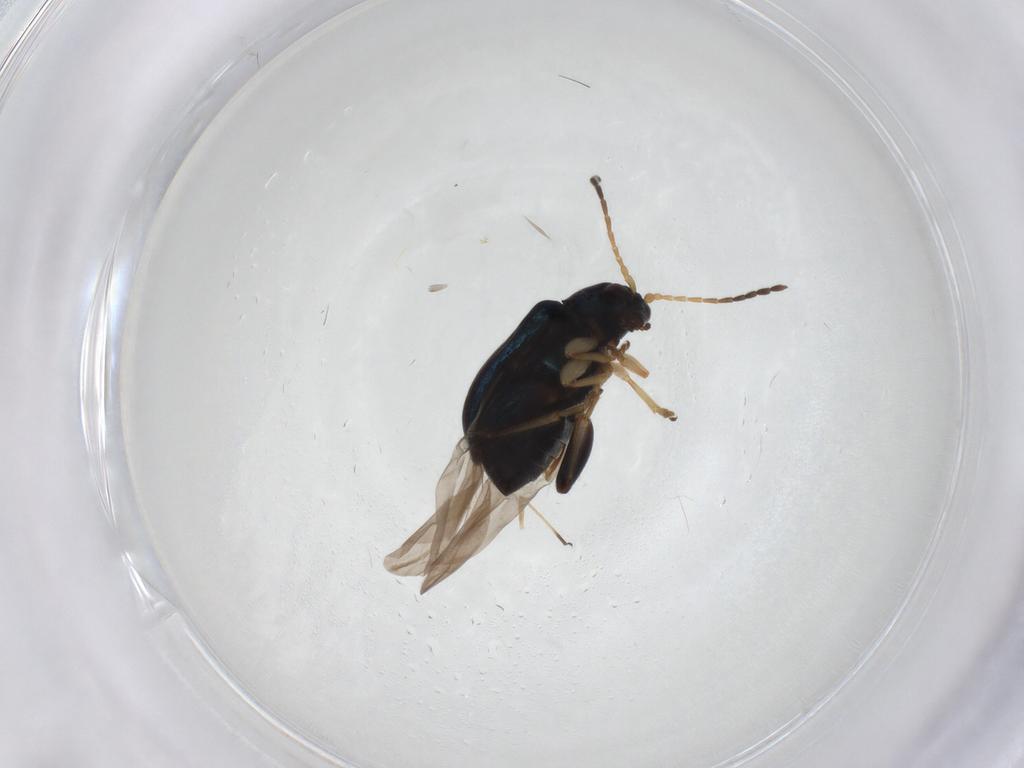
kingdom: Animalia
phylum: Arthropoda
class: Insecta
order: Coleoptera
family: Chrysomelidae
